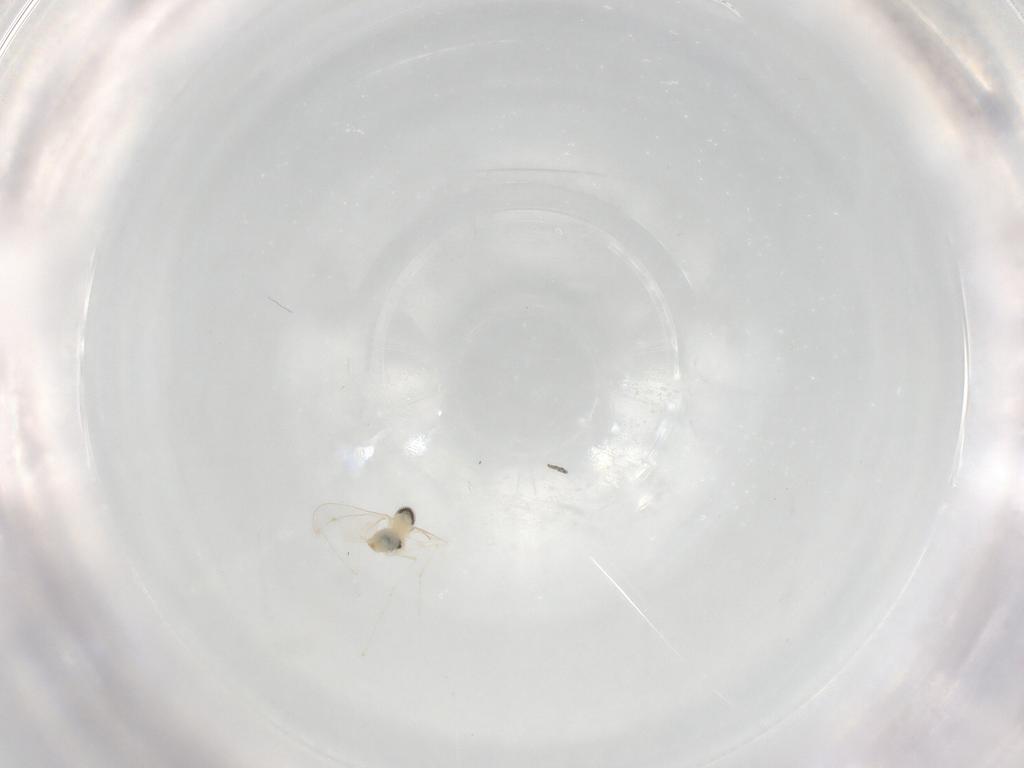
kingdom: Animalia
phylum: Arthropoda
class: Insecta
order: Diptera
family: Cecidomyiidae
